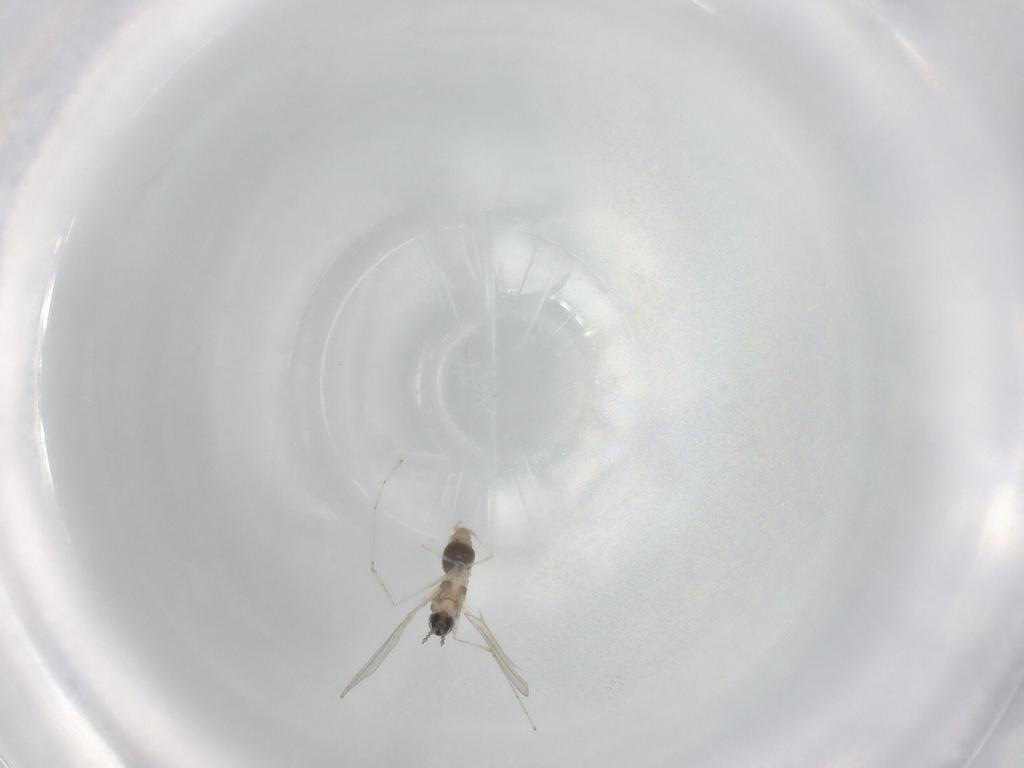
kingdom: Animalia
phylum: Arthropoda
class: Insecta
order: Diptera
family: Cecidomyiidae
